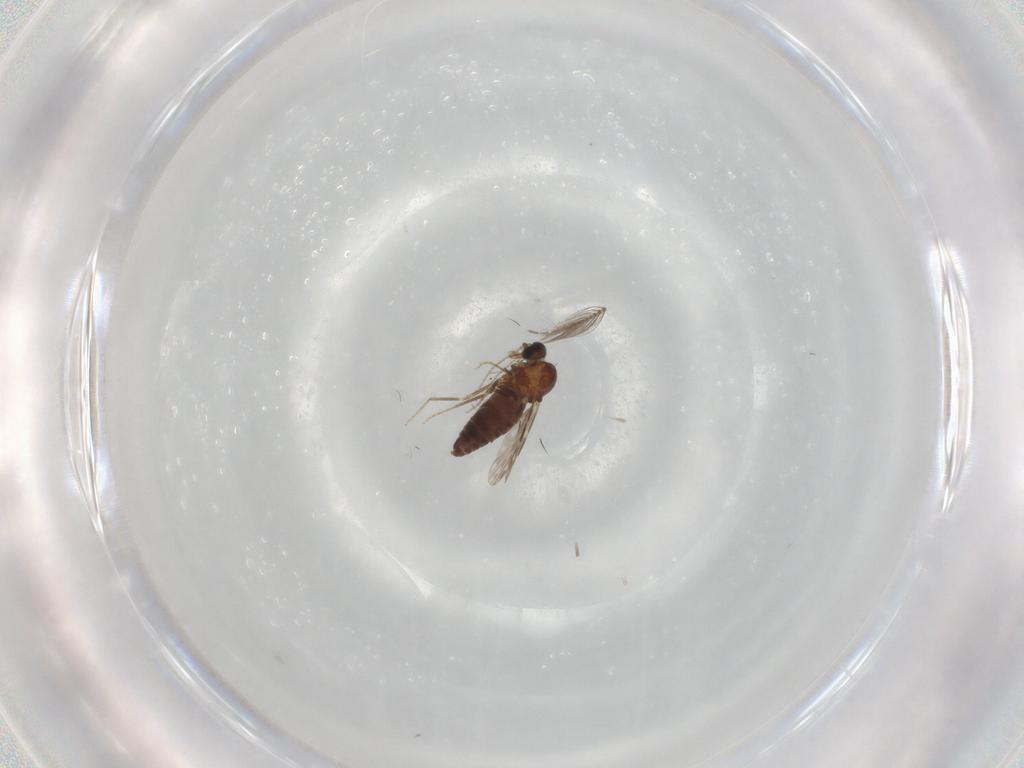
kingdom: Animalia
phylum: Arthropoda
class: Insecta
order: Diptera
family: Ceratopogonidae
